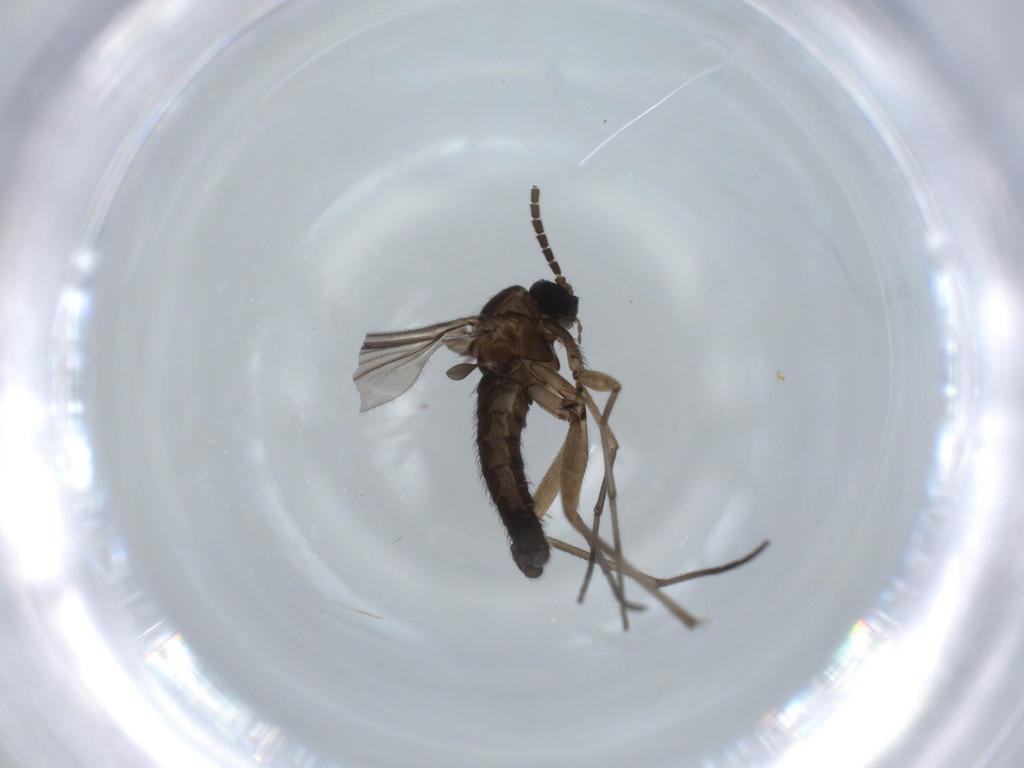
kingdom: Animalia
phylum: Arthropoda
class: Insecta
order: Diptera
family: Sciaridae
